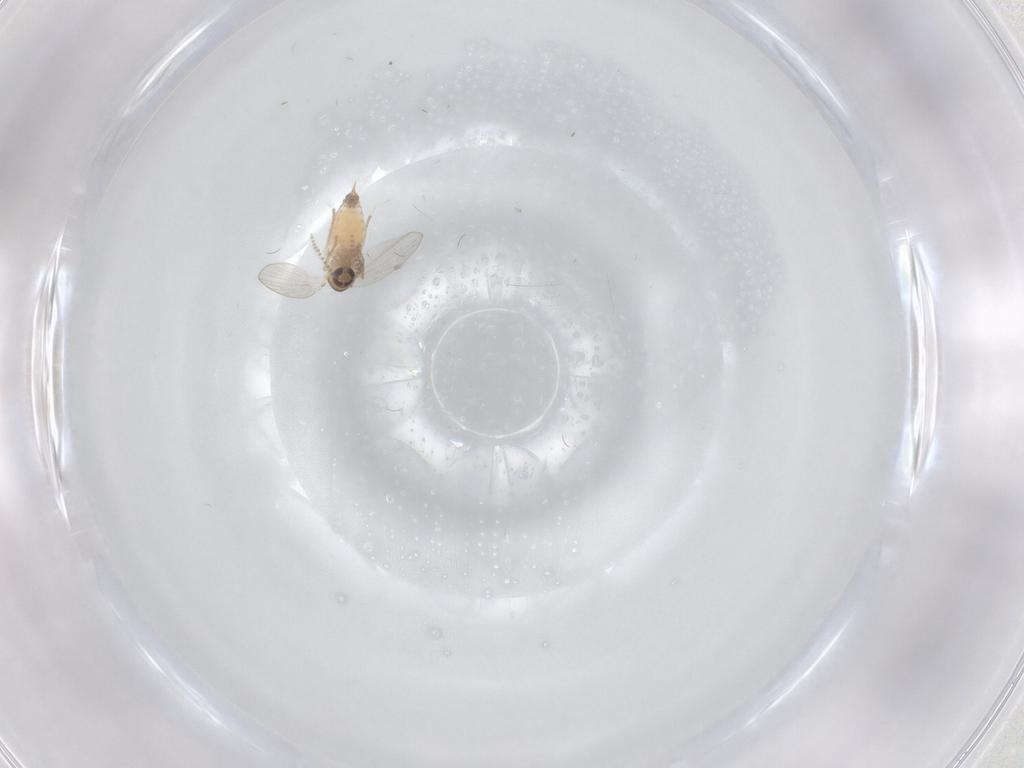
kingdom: Animalia
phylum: Arthropoda
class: Insecta
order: Diptera
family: Psychodidae
